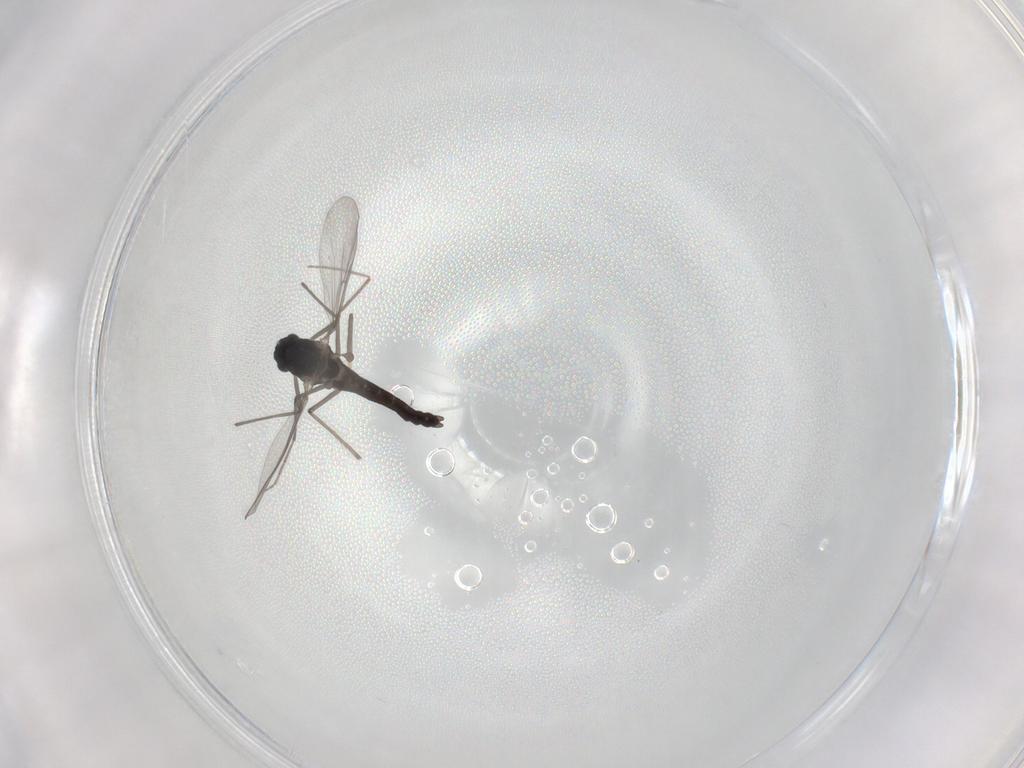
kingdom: Animalia
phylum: Arthropoda
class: Insecta
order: Diptera
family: Chironomidae
